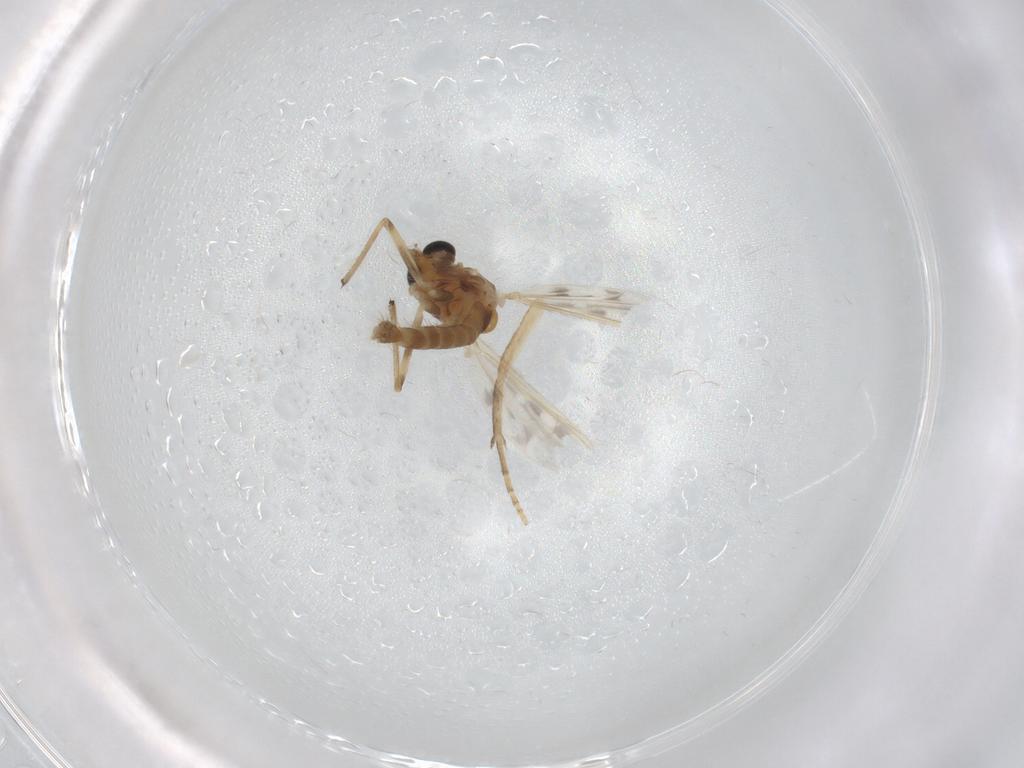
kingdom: Animalia
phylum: Arthropoda
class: Insecta
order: Diptera
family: Chironomidae
